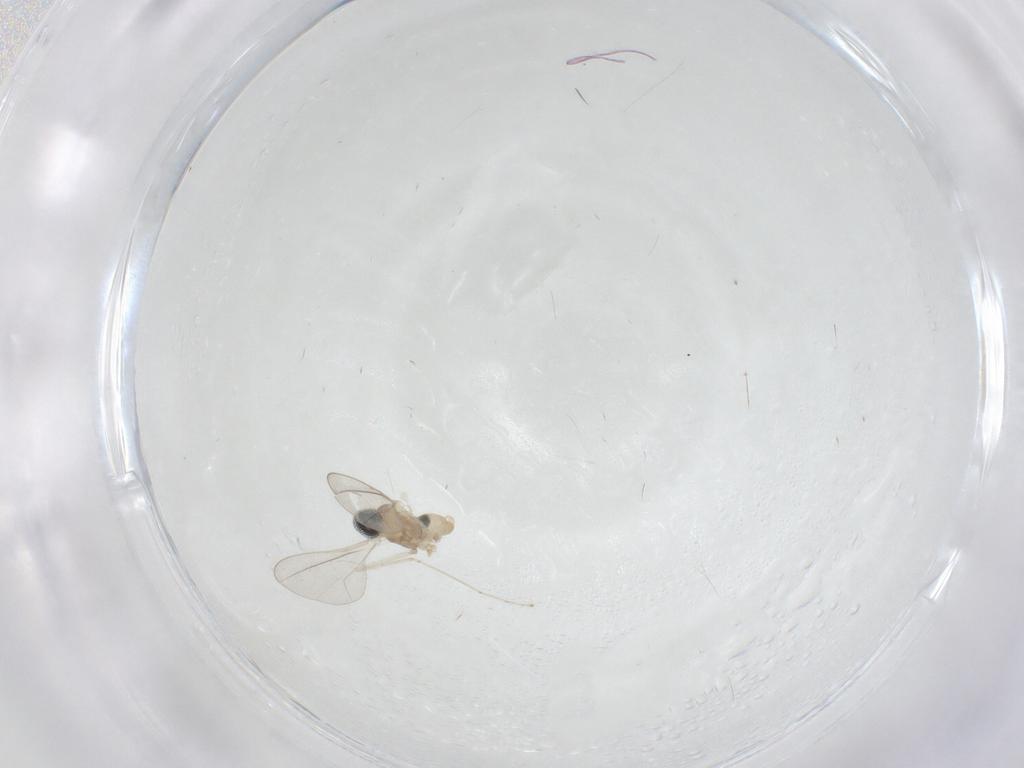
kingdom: Animalia
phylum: Arthropoda
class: Insecta
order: Diptera
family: Cecidomyiidae
